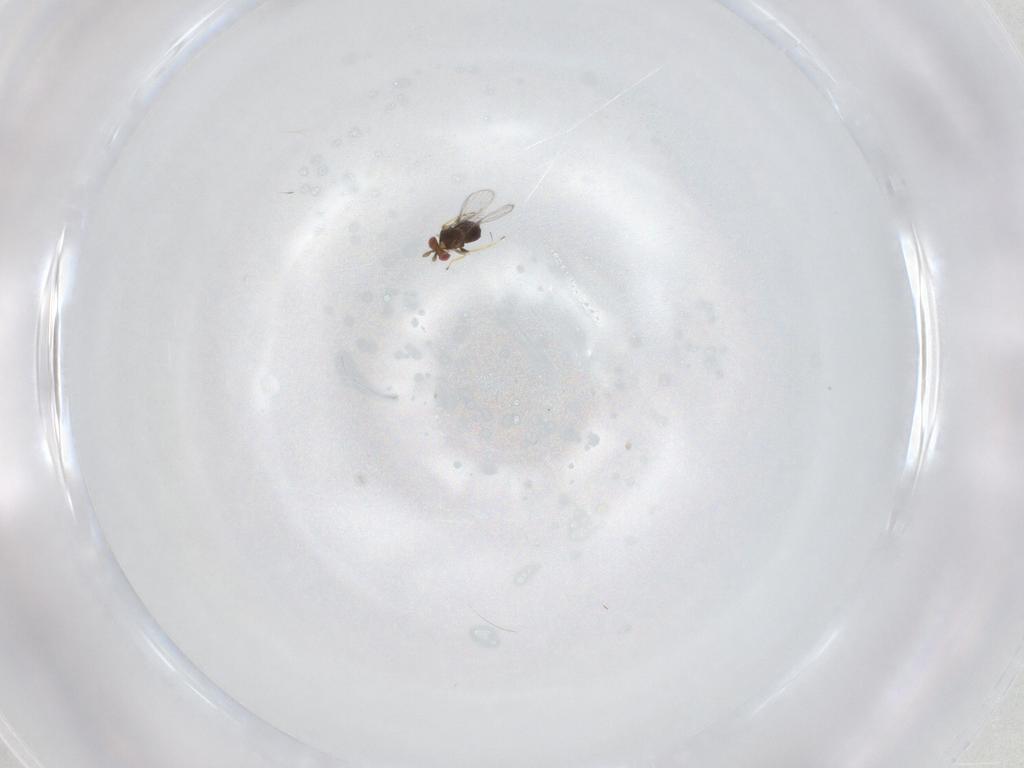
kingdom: Animalia
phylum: Arthropoda
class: Insecta
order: Hymenoptera
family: Trichogrammatidae
